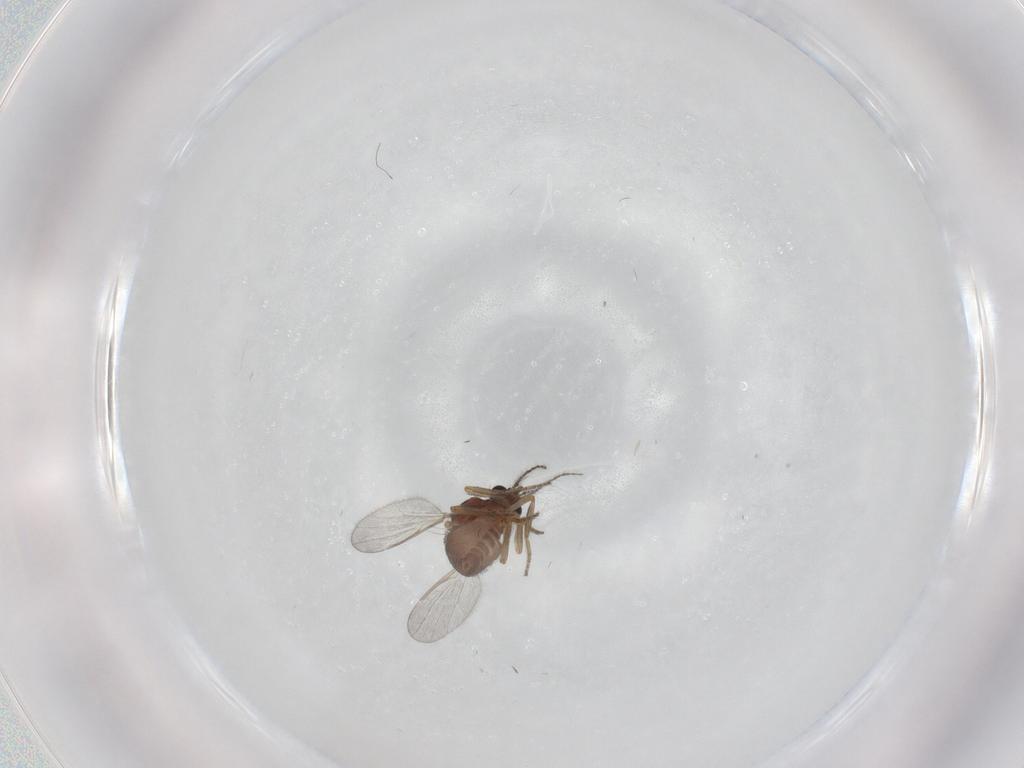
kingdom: Animalia
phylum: Arthropoda
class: Insecta
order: Diptera
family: Ceratopogonidae
